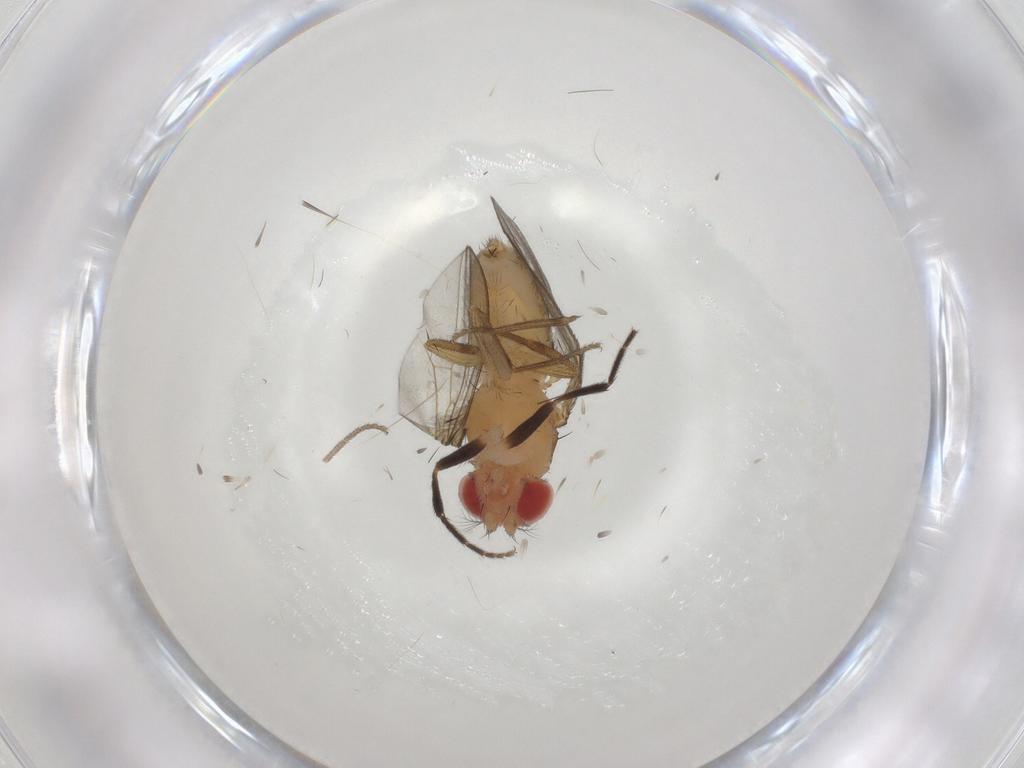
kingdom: Animalia
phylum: Arthropoda
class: Insecta
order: Diptera
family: Drosophilidae
